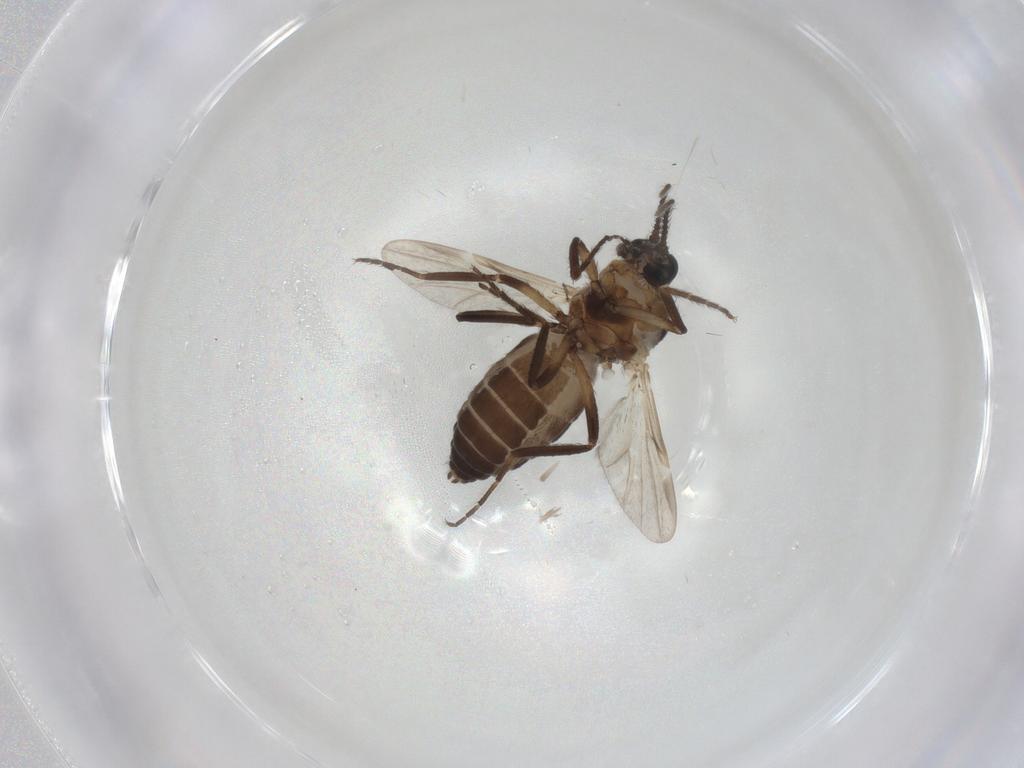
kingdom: Animalia
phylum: Arthropoda
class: Insecta
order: Diptera
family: Ceratopogonidae
